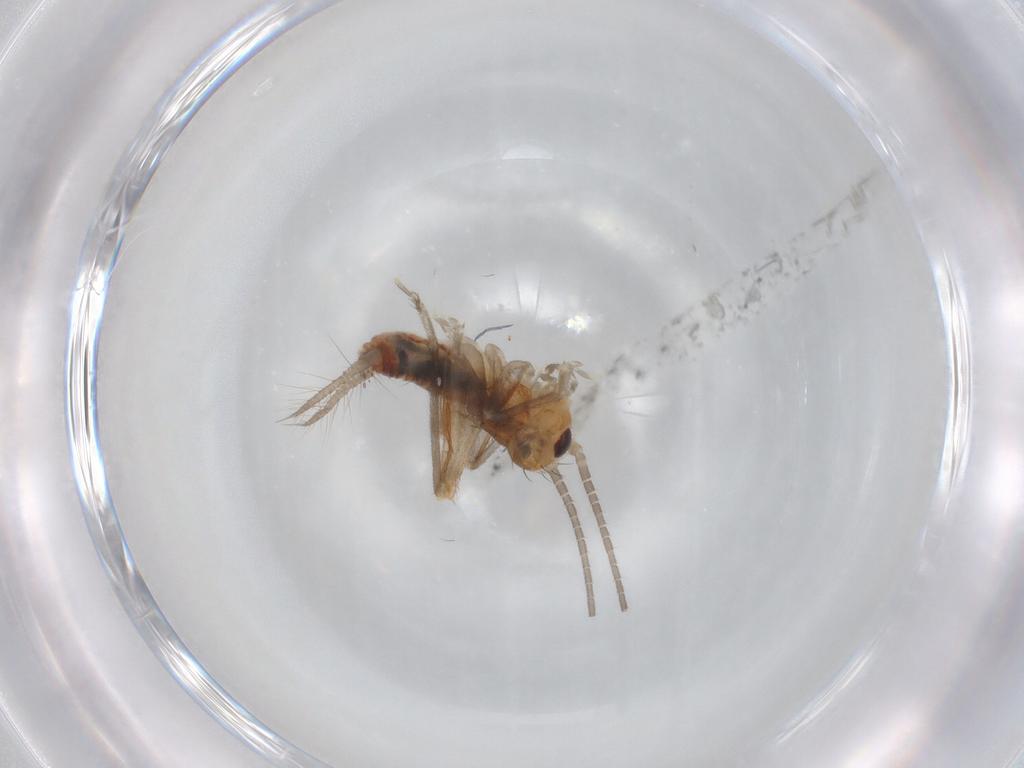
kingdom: Animalia
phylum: Arthropoda
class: Insecta
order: Orthoptera
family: Trigonidiidae
